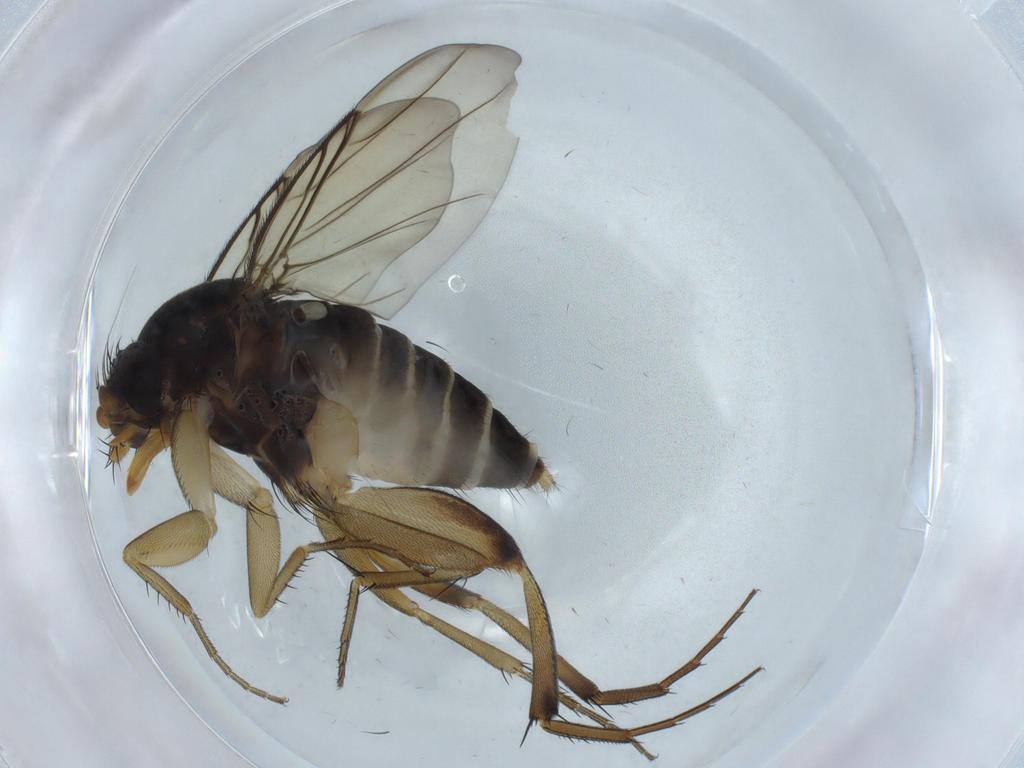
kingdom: Animalia
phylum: Arthropoda
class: Insecta
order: Diptera
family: Phoridae
